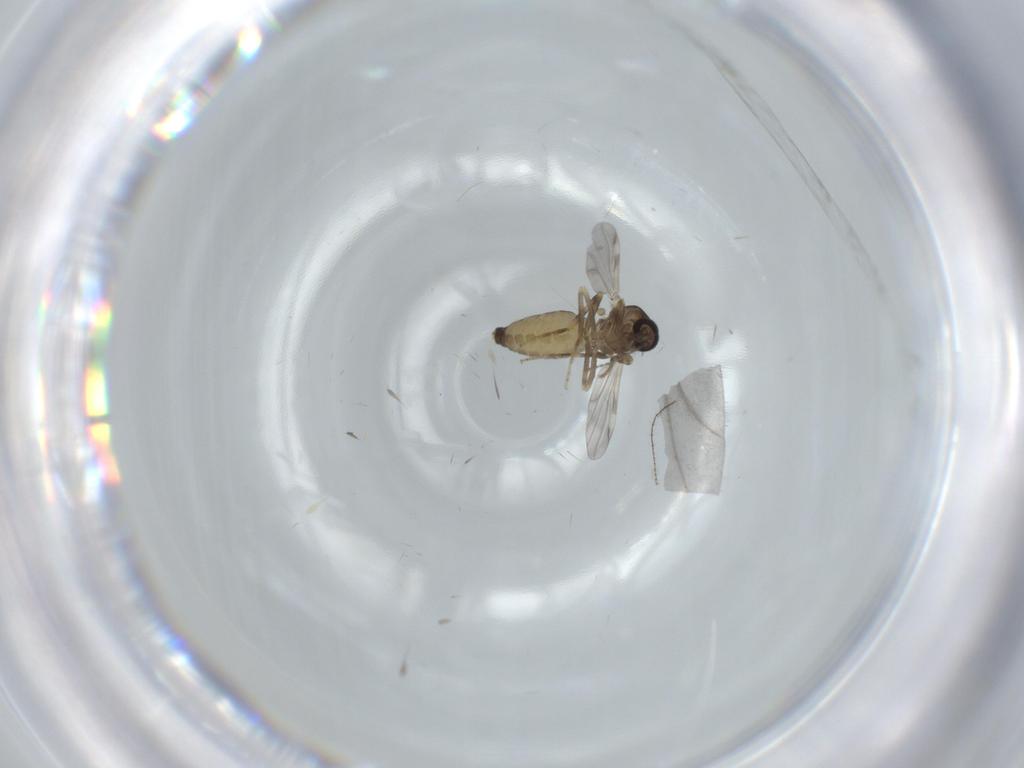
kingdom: Animalia
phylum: Arthropoda
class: Insecta
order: Diptera
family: Ceratopogonidae
